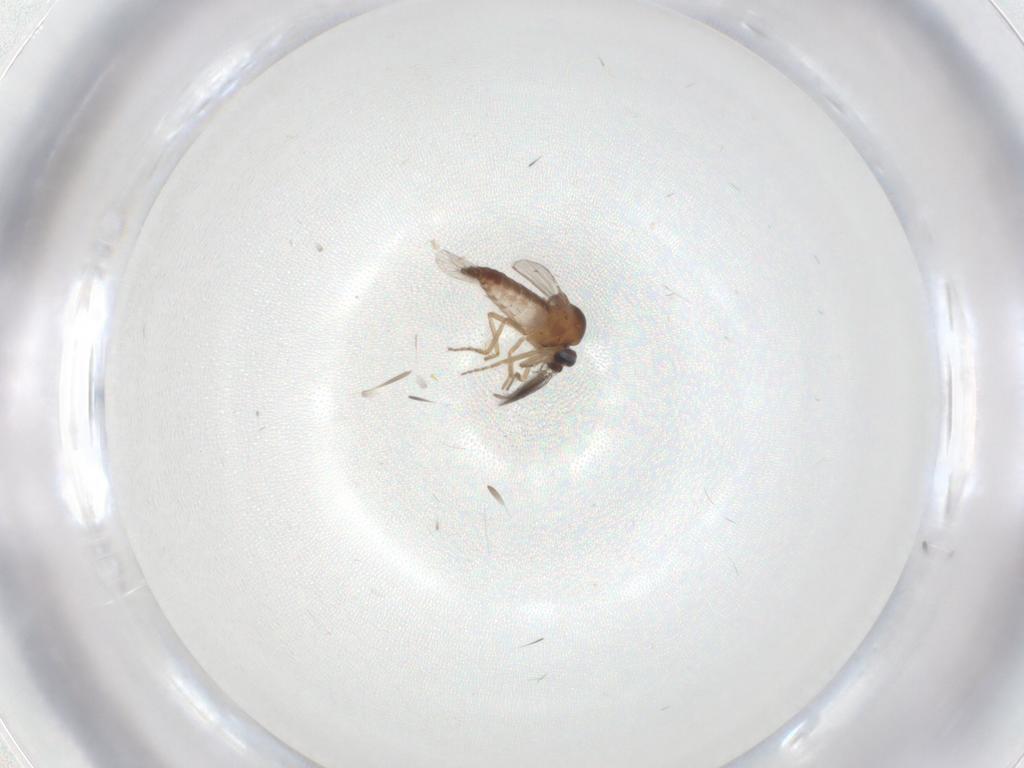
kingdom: Animalia
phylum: Arthropoda
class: Insecta
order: Diptera
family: Ceratopogonidae
